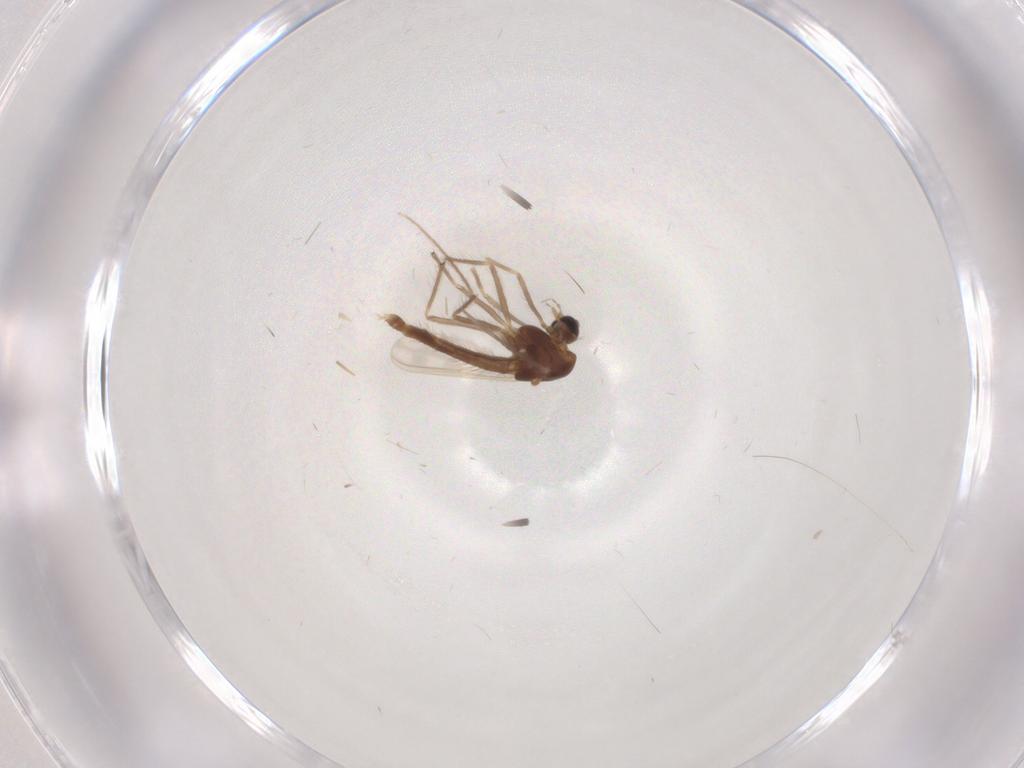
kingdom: Animalia
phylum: Arthropoda
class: Insecta
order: Diptera
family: Chironomidae
